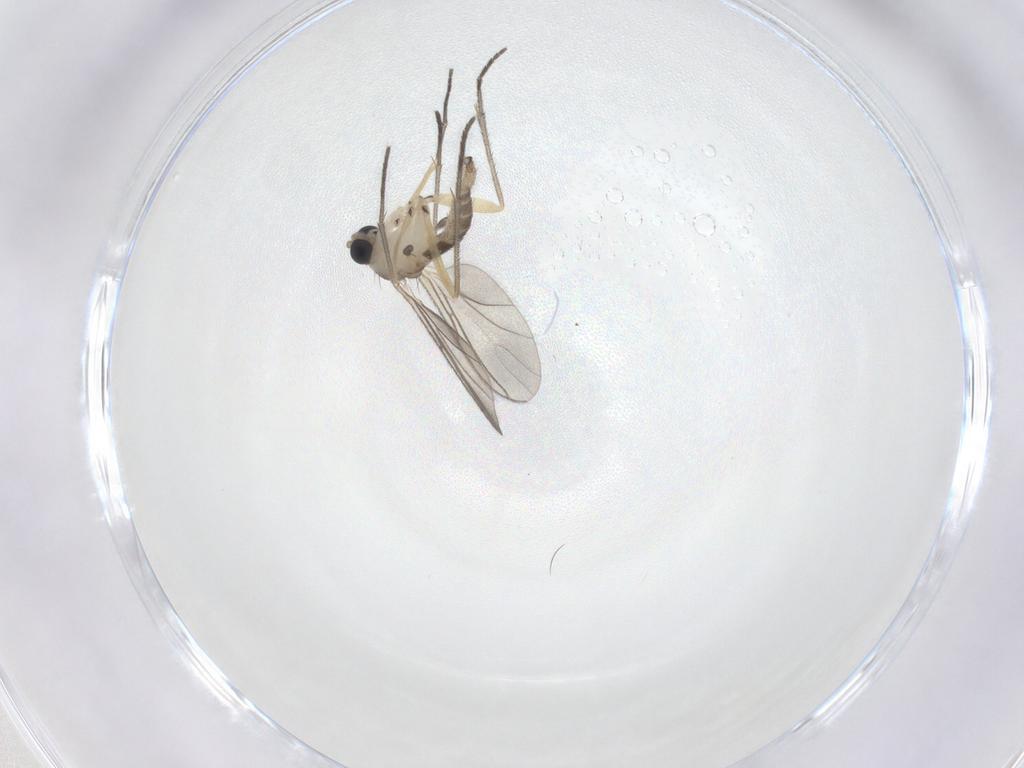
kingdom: Animalia
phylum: Arthropoda
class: Insecta
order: Diptera
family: Sciaridae
